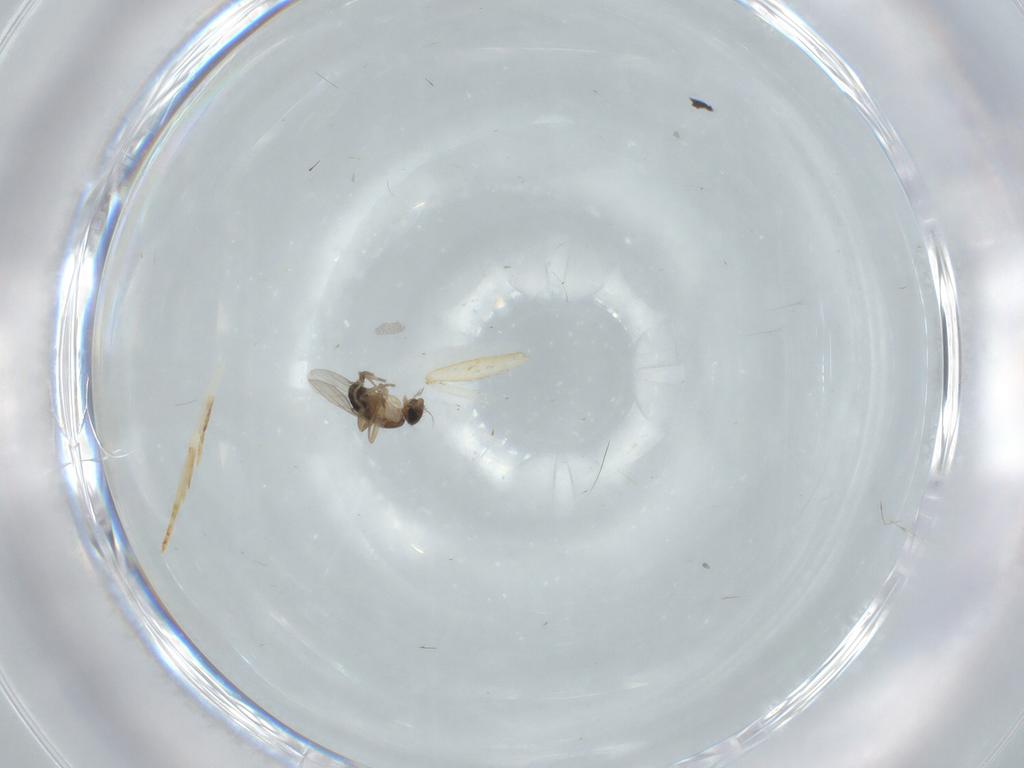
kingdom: Animalia
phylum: Arthropoda
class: Insecta
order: Diptera
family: Phoridae
